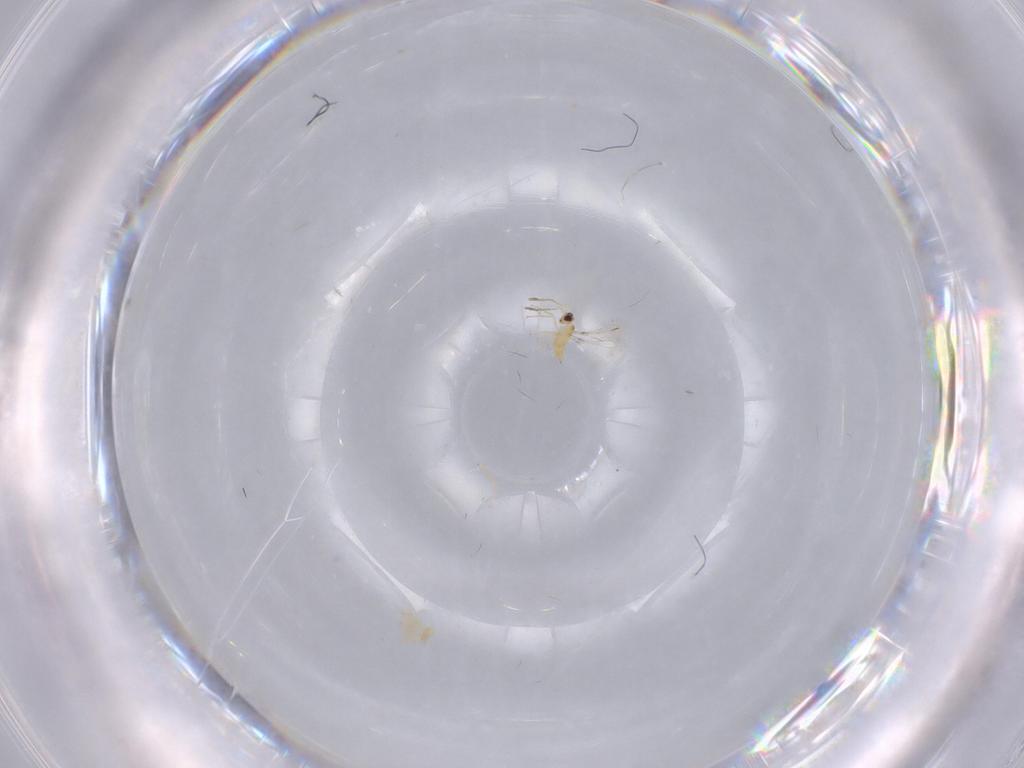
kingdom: Animalia
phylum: Arthropoda
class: Insecta
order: Hymenoptera
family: Mymaridae
